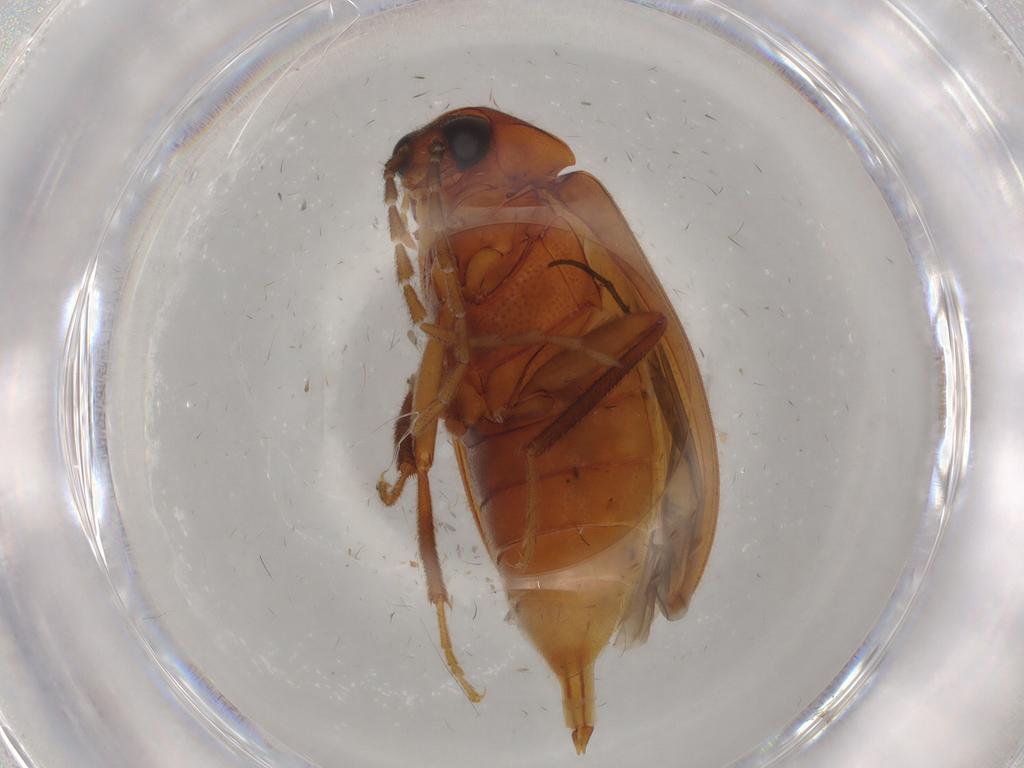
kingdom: Animalia
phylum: Arthropoda
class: Insecta
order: Coleoptera
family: Ptilodactylidae
